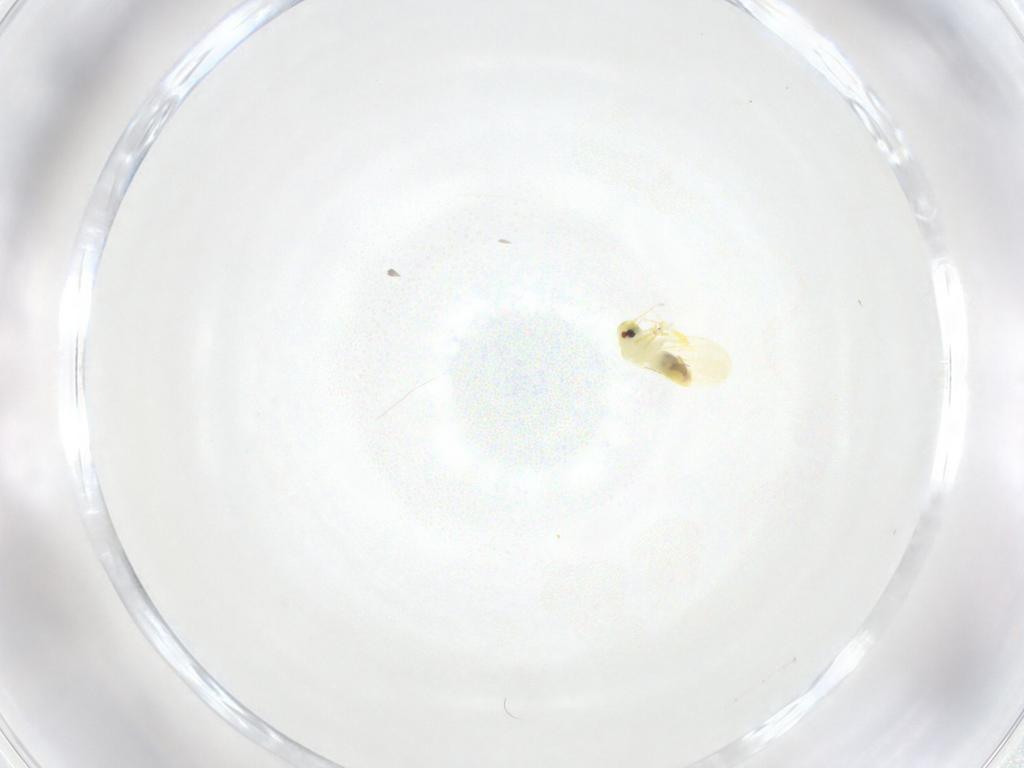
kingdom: Animalia
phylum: Arthropoda
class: Insecta
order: Hemiptera
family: Aleyrodidae
